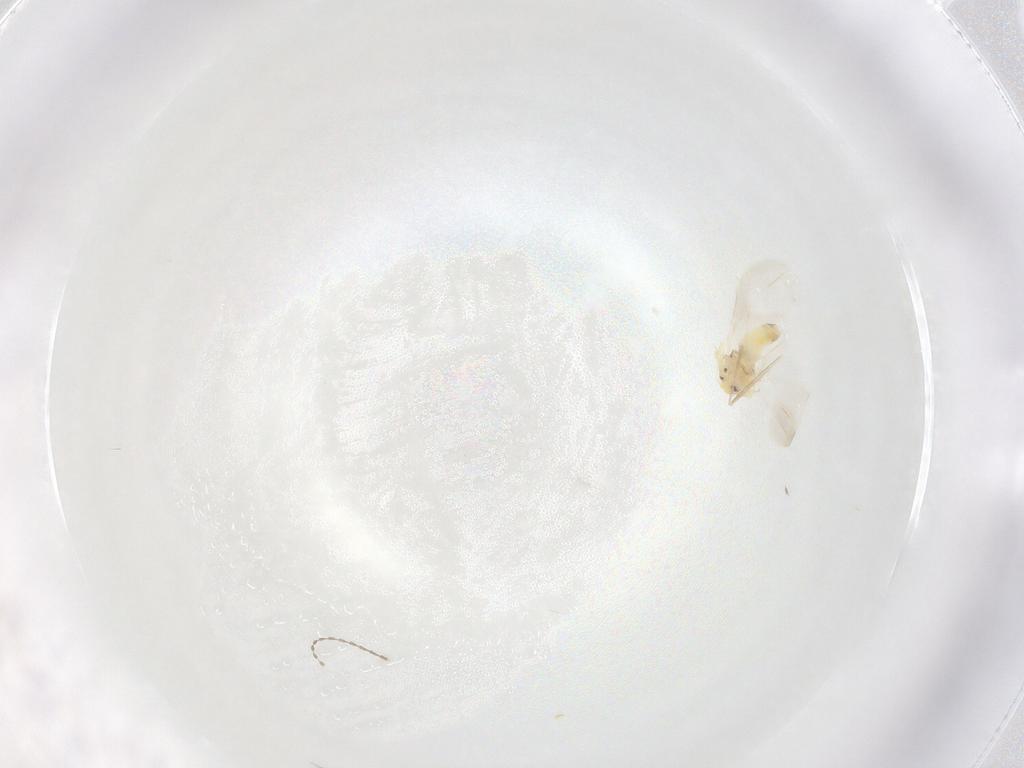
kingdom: Animalia
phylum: Arthropoda
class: Insecta
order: Hemiptera
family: Aleyrodidae
